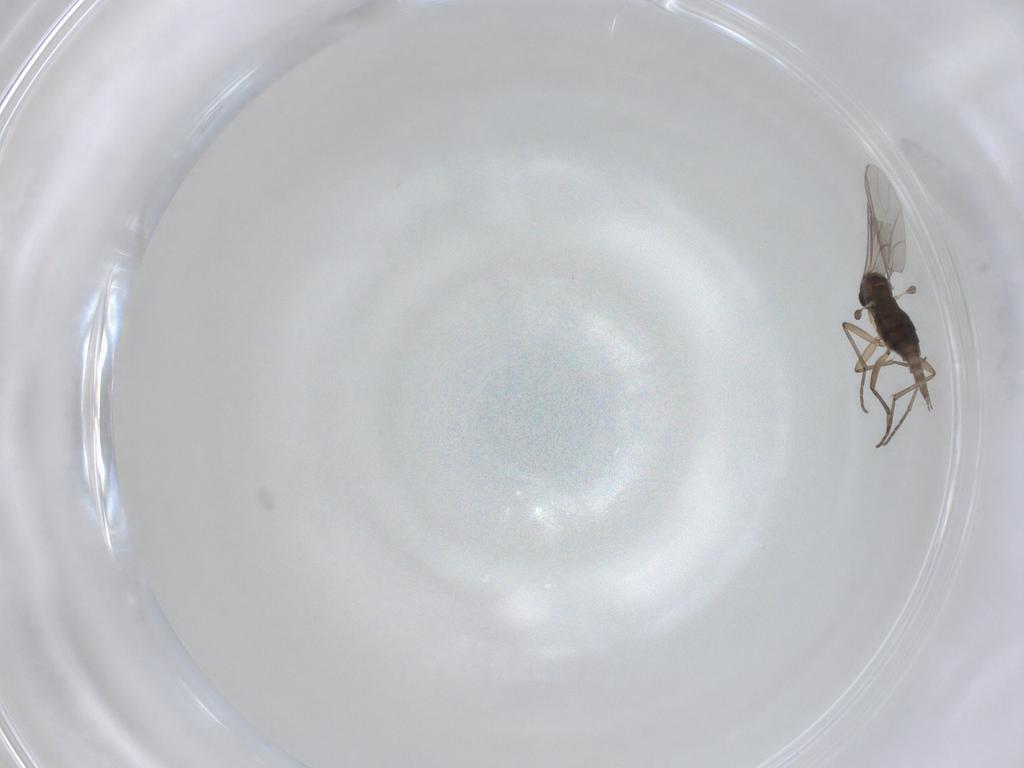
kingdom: Animalia
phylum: Arthropoda
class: Insecta
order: Diptera
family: Sciaridae
